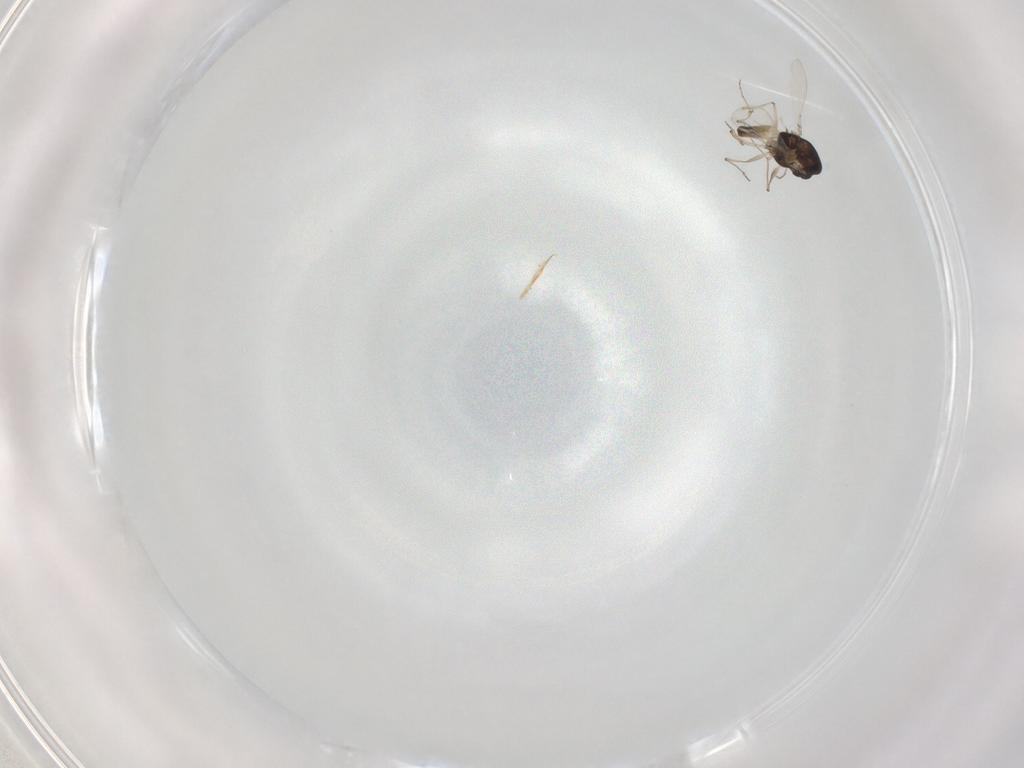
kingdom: Animalia
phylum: Arthropoda
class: Insecta
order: Diptera
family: Chironomidae
